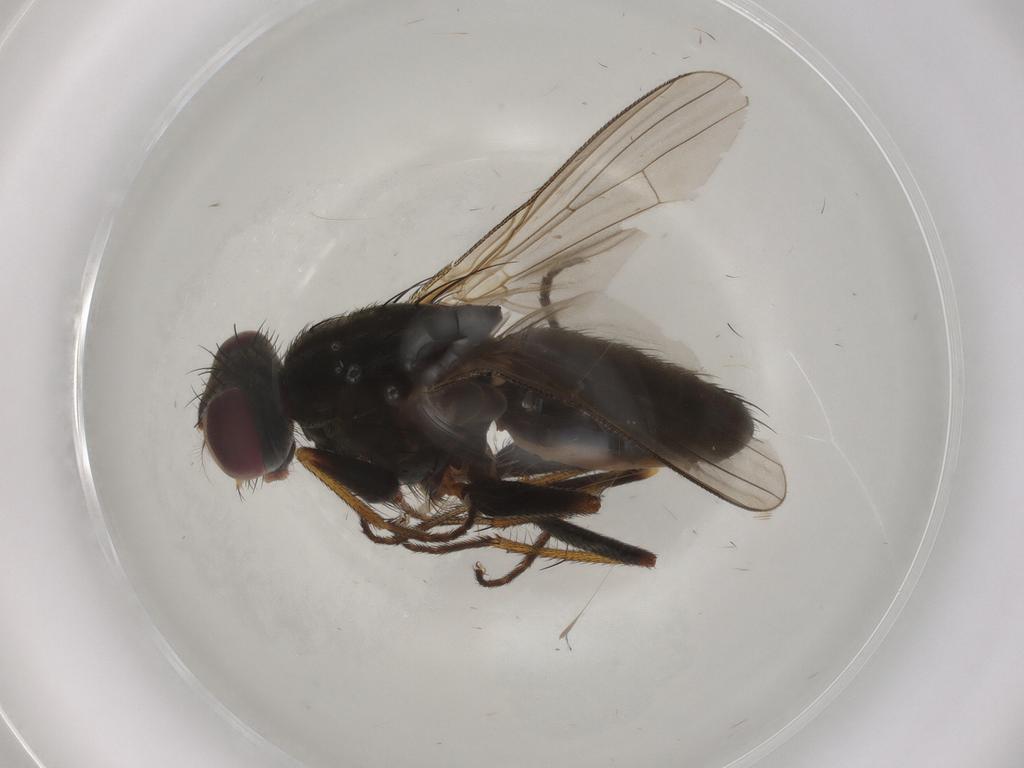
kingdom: Animalia
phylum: Arthropoda
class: Insecta
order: Diptera
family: Muscidae
